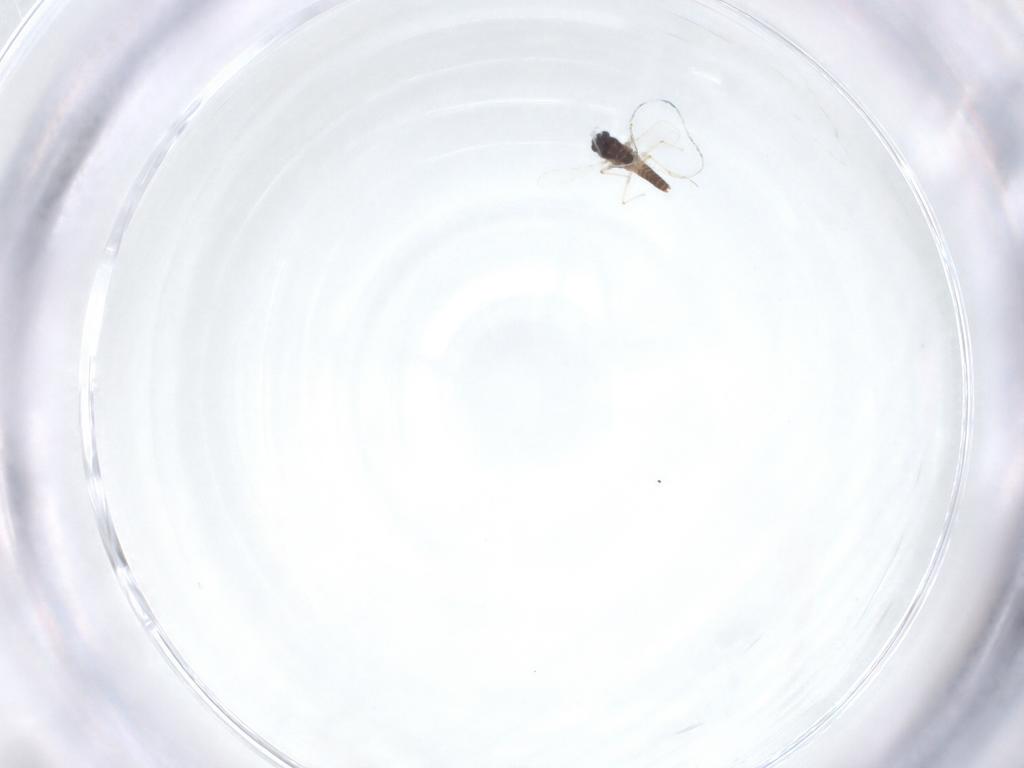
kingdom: Animalia
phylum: Arthropoda
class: Insecta
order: Diptera
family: Chironomidae
